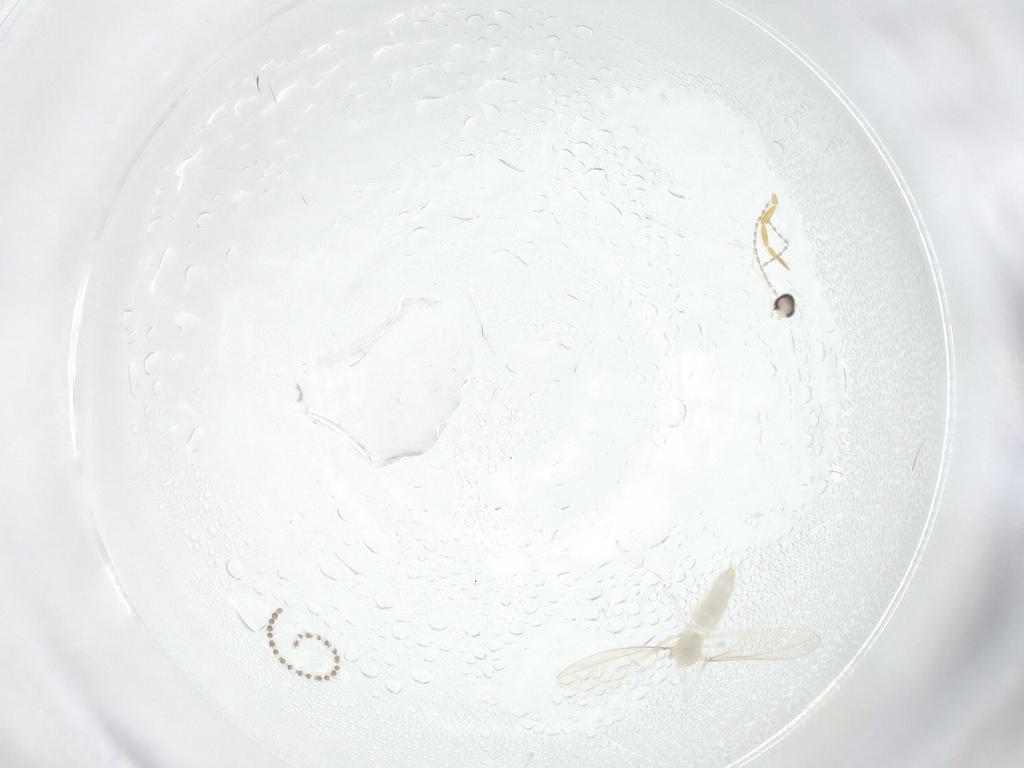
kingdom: Animalia
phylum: Arthropoda
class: Insecta
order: Diptera
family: Cecidomyiidae
